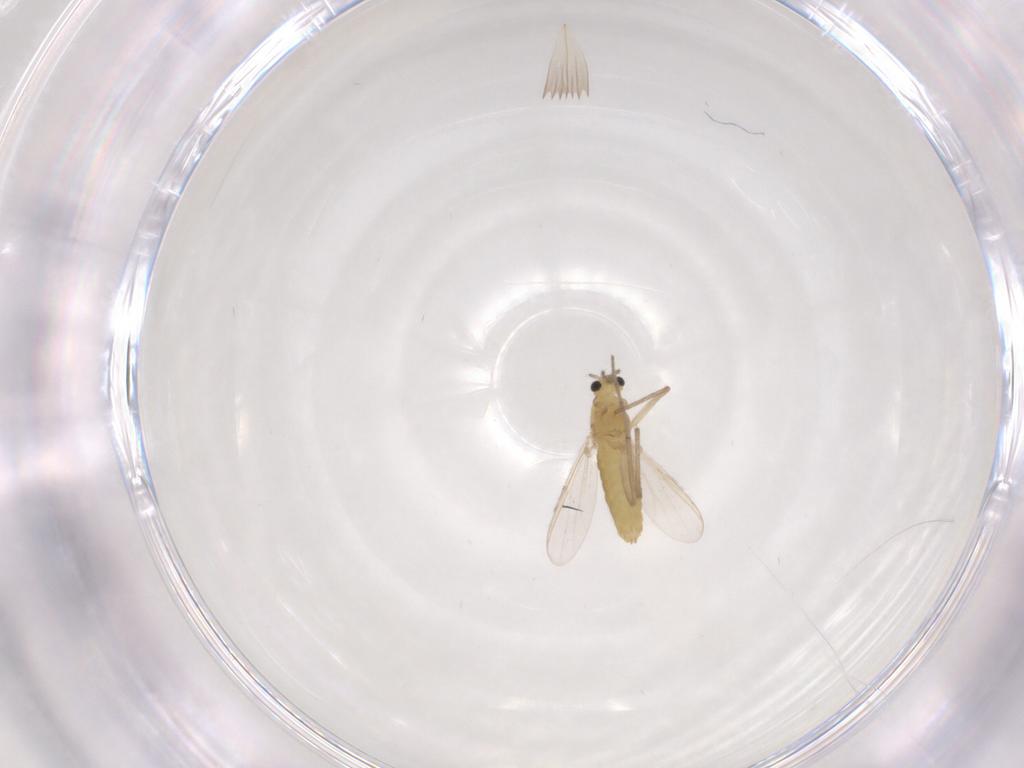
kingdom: Animalia
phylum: Arthropoda
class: Insecta
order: Diptera
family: Chironomidae
